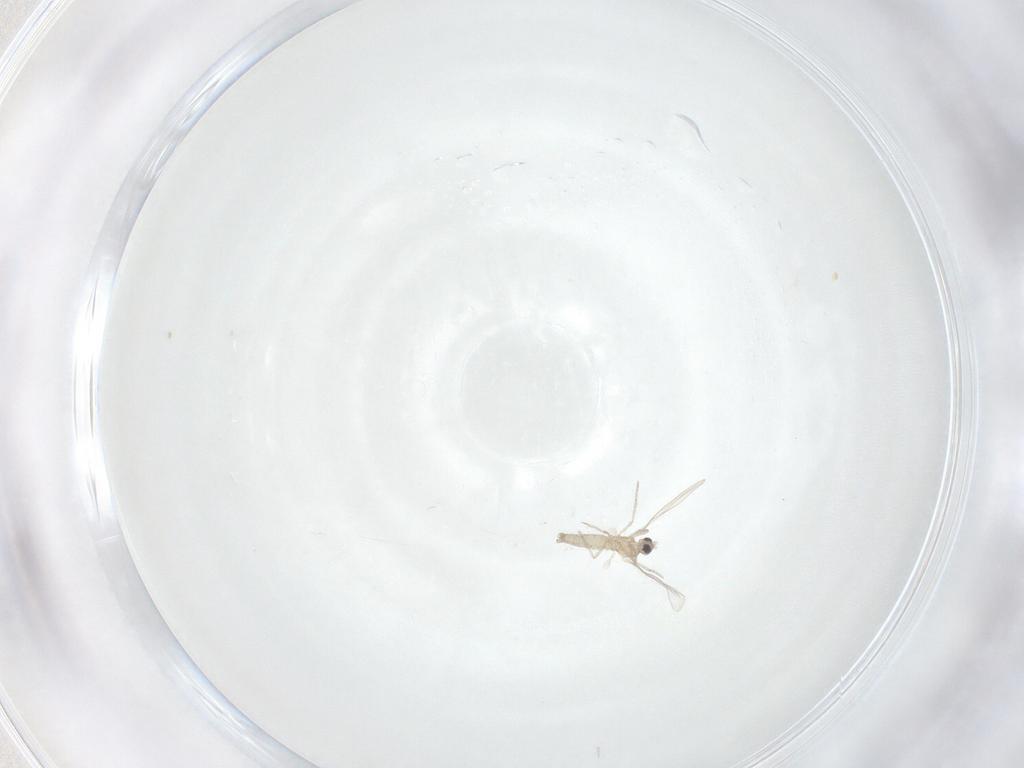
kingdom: Animalia
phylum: Arthropoda
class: Insecta
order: Diptera
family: Cecidomyiidae
